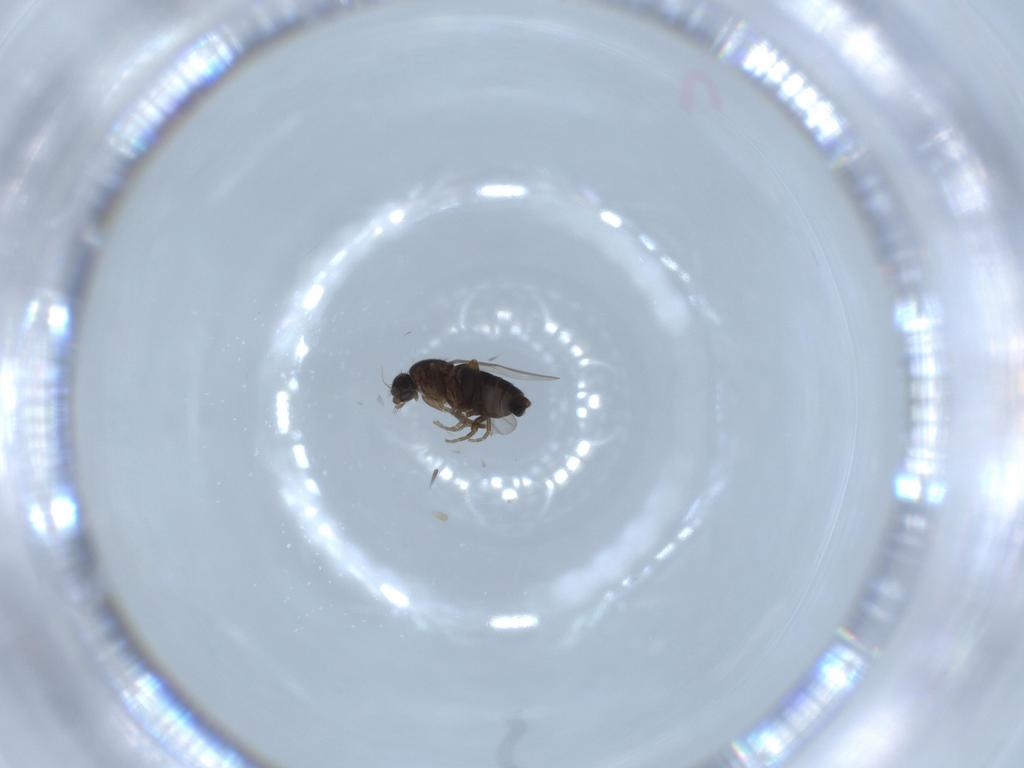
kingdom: Animalia
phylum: Arthropoda
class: Insecta
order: Diptera
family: Phoridae
